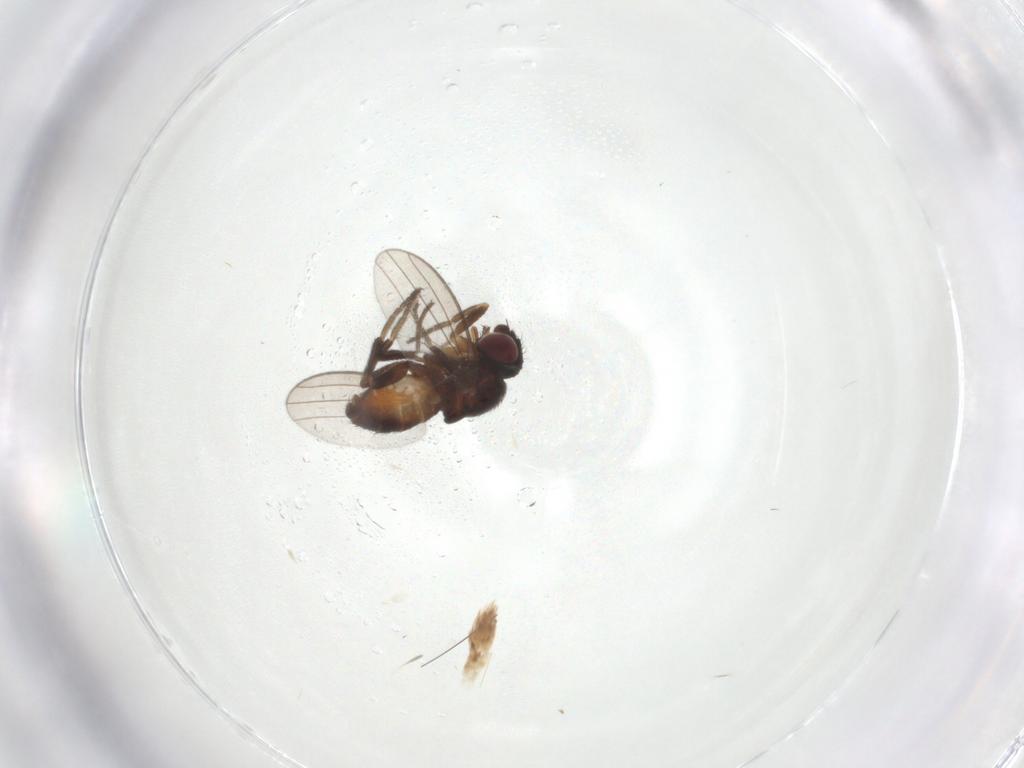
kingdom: Animalia
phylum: Arthropoda
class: Insecta
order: Diptera
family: Milichiidae
